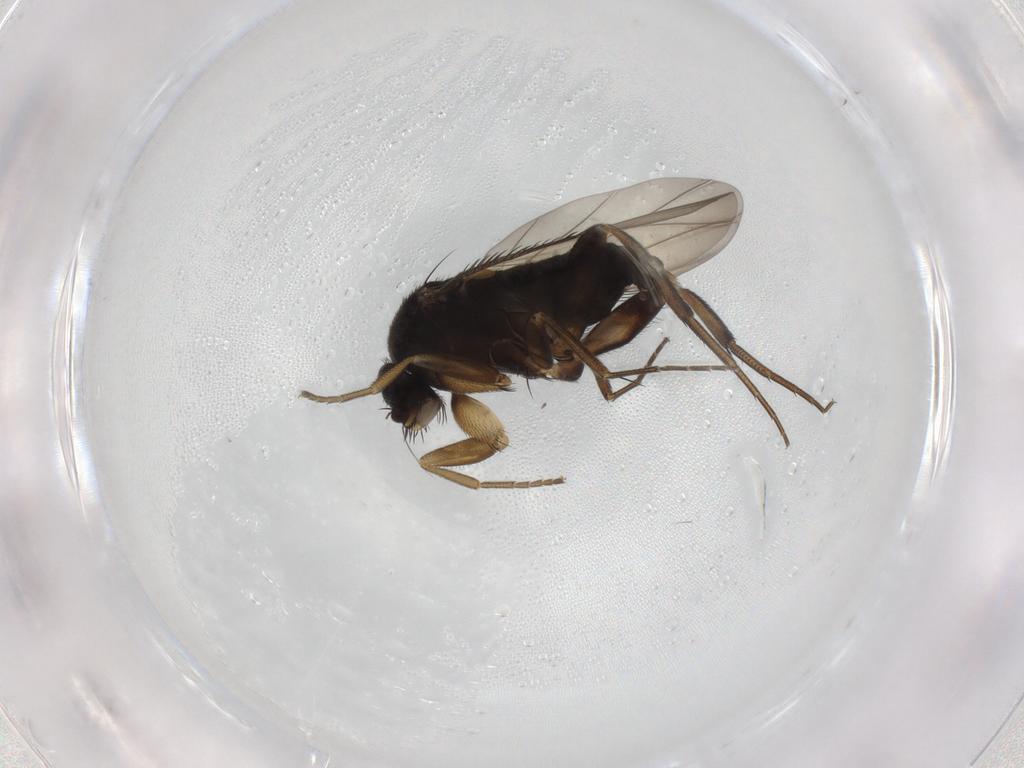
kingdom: Animalia
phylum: Arthropoda
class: Insecta
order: Diptera
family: Phoridae
